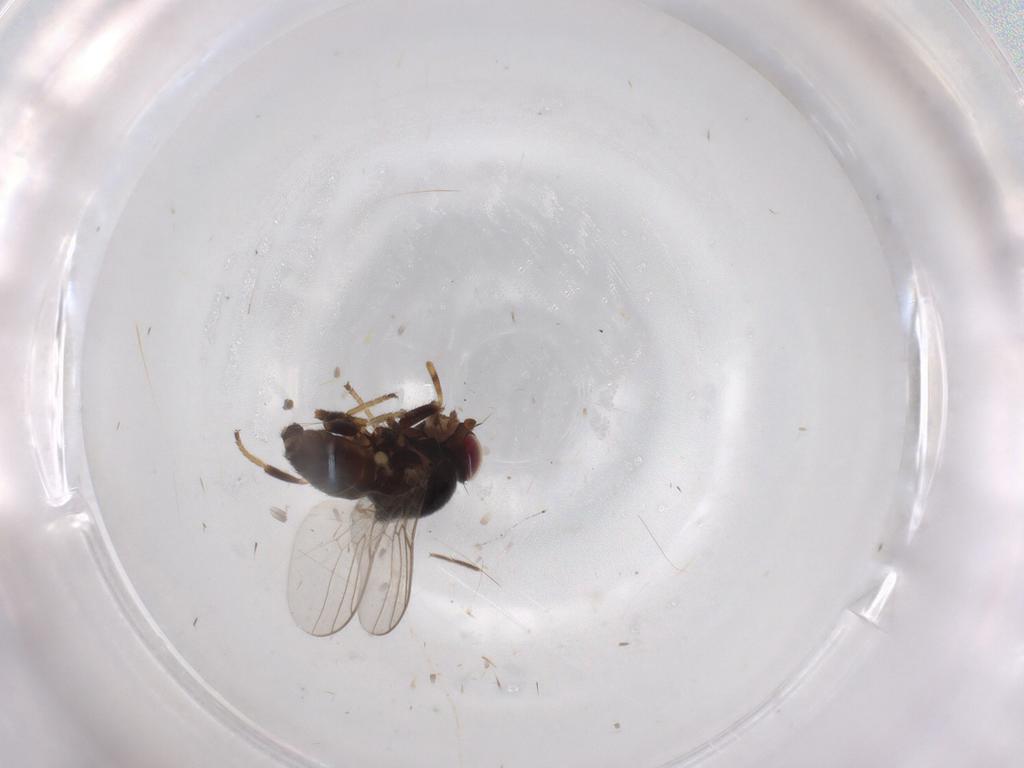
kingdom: Animalia
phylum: Arthropoda
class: Insecta
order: Diptera
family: Chloropidae
